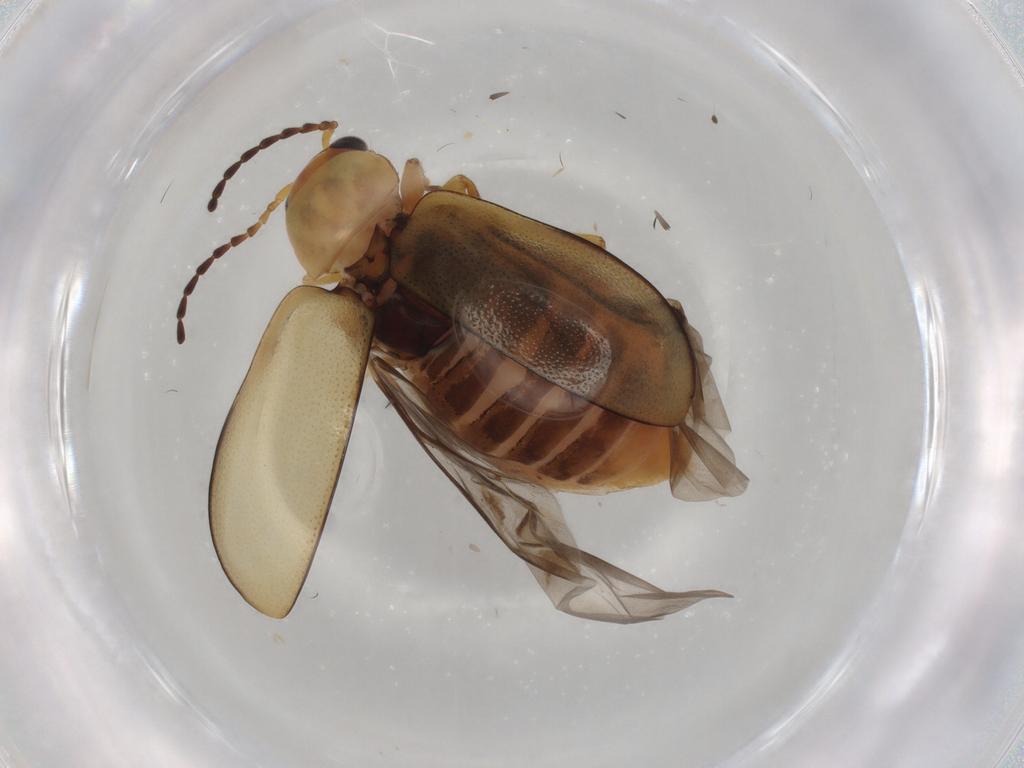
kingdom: Animalia
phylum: Arthropoda
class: Insecta
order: Coleoptera
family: Chrysomelidae
